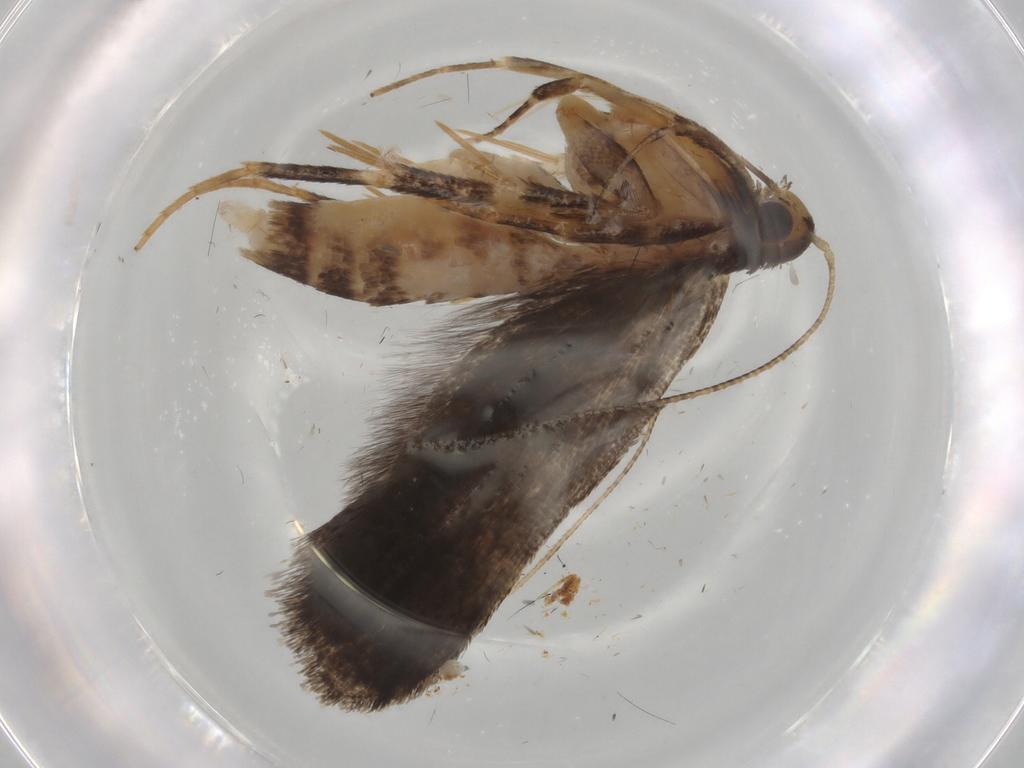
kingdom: Animalia
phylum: Arthropoda
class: Insecta
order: Lepidoptera
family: Gelechiidae
